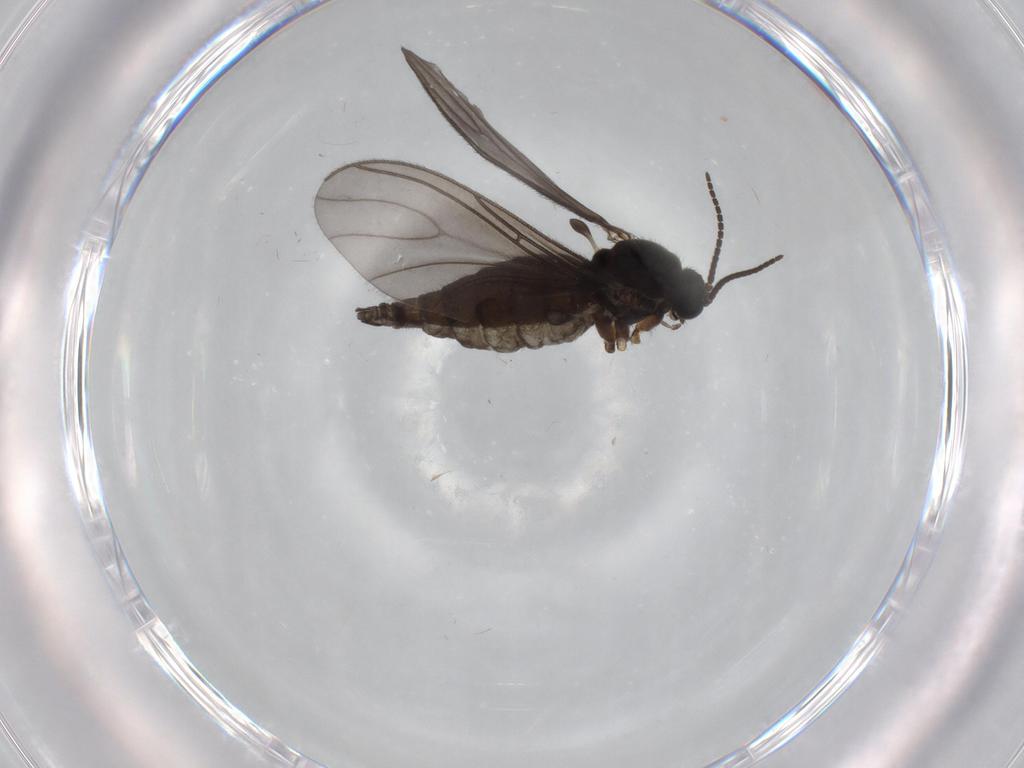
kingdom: Animalia
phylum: Arthropoda
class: Insecta
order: Diptera
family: Sciaridae
